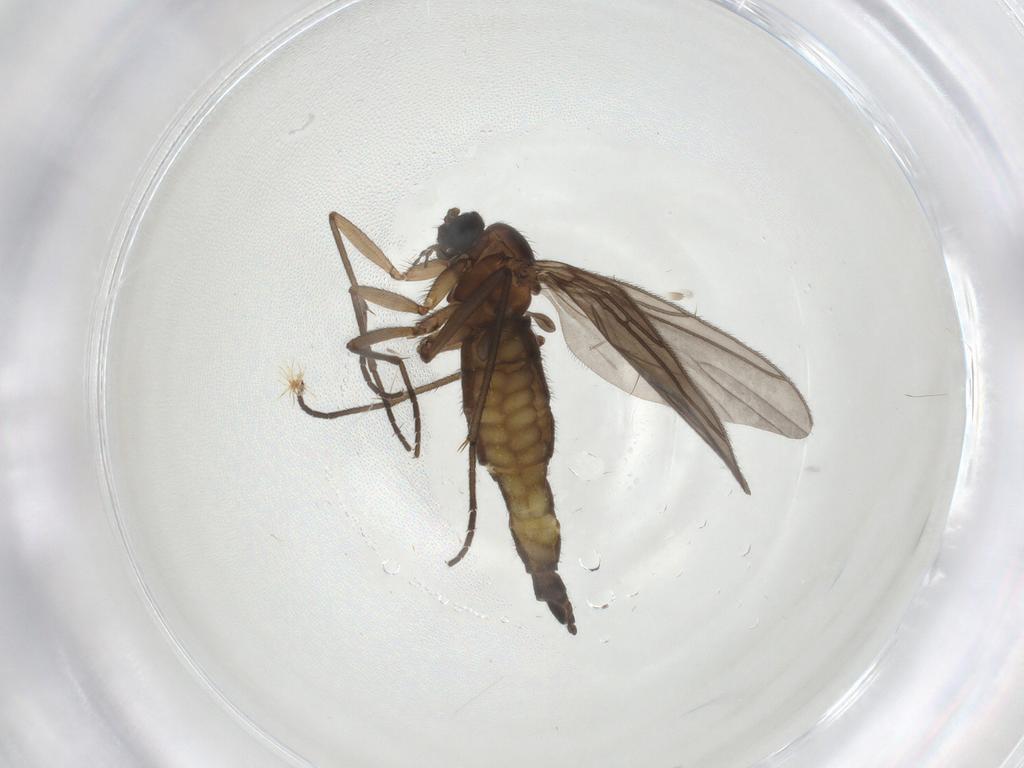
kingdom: Animalia
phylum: Arthropoda
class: Insecta
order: Diptera
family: Sciaridae
